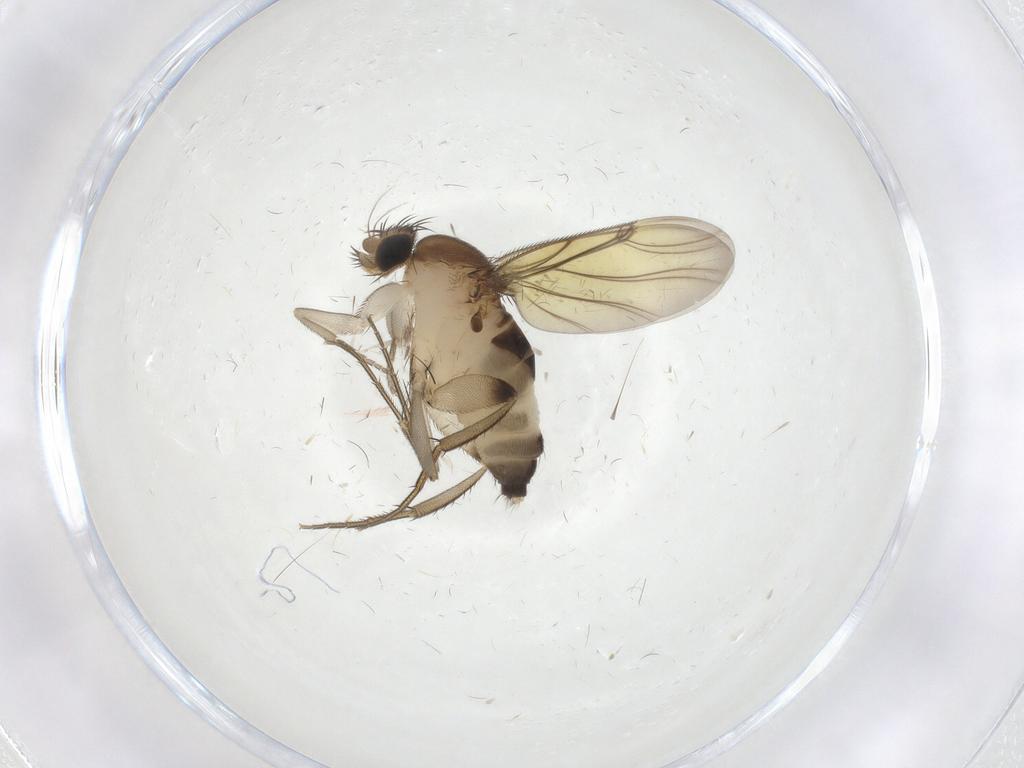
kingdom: Animalia
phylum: Arthropoda
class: Insecta
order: Diptera
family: Phoridae
